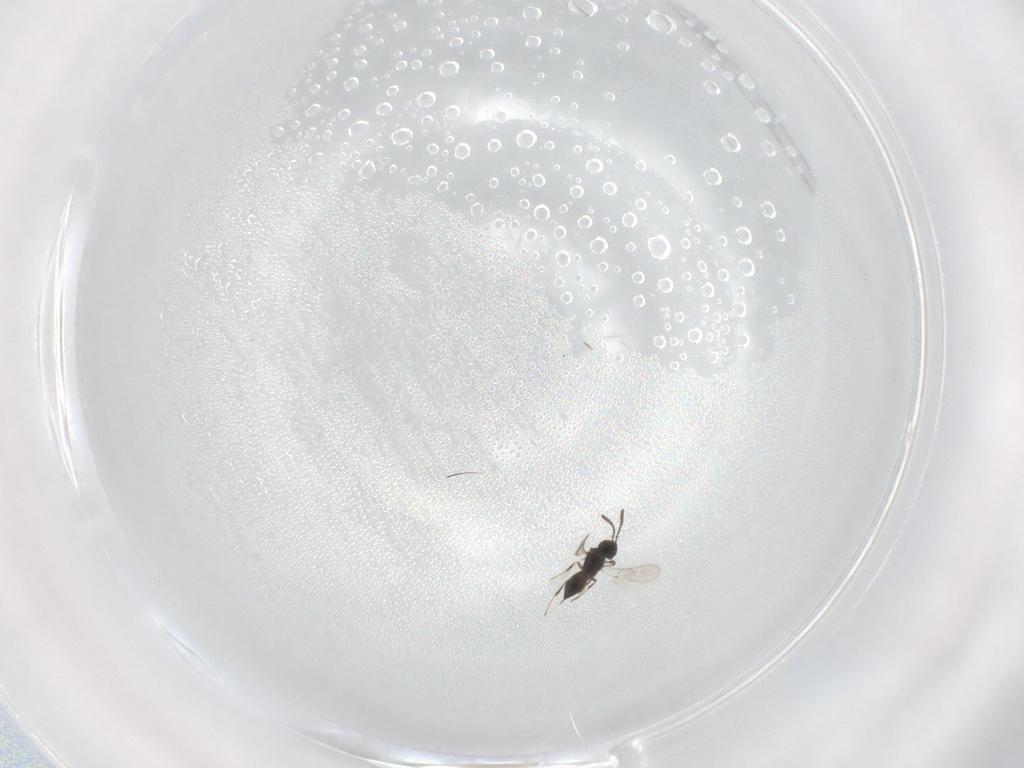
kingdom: Animalia
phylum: Arthropoda
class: Insecta
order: Hymenoptera
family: Scelionidae
